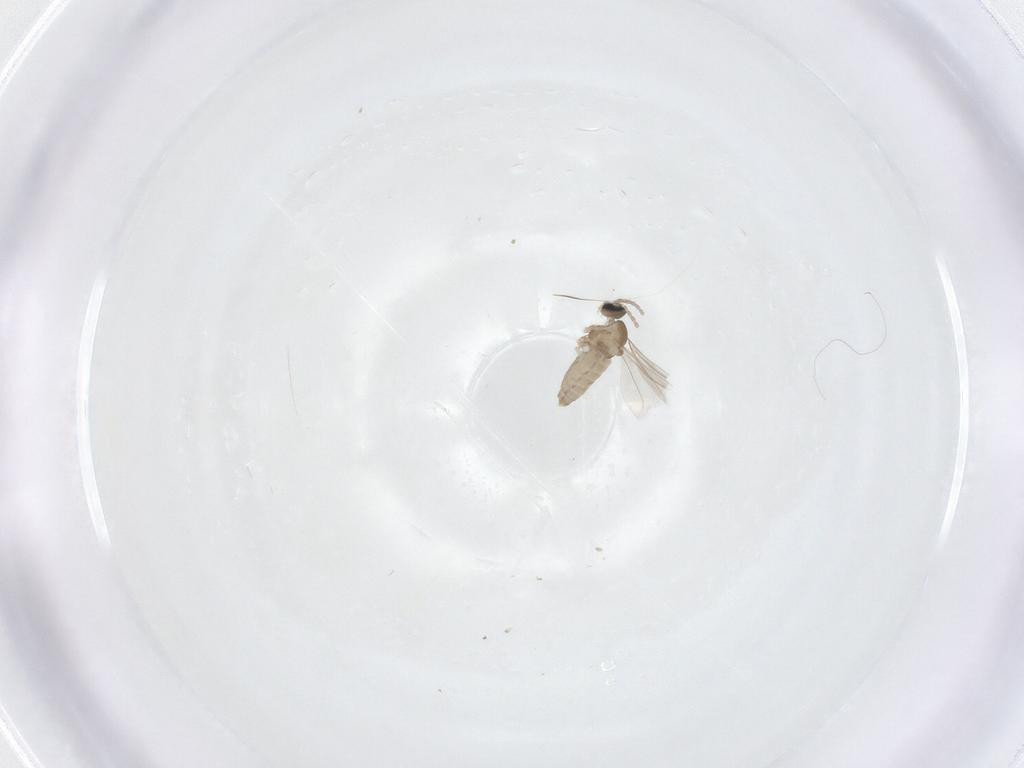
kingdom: Animalia
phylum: Arthropoda
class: Insecta
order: Diptera
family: Cecidomyiidae
